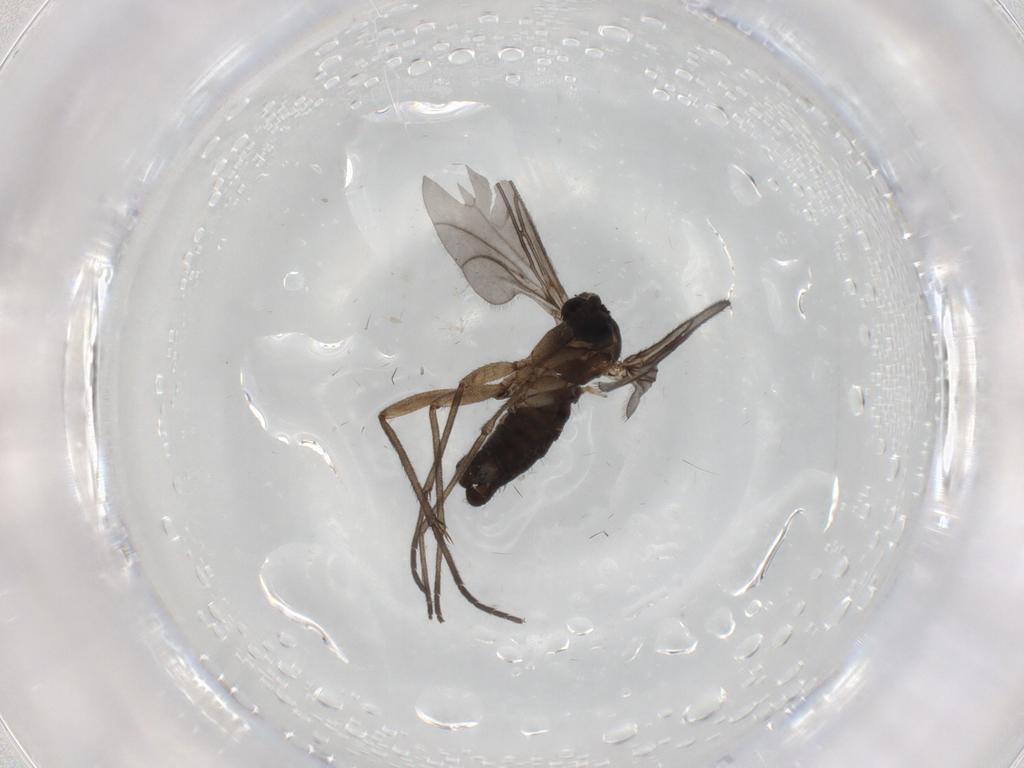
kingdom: Animalia
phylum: Arthropoda
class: Insecta
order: Diptera
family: Sciaridae
